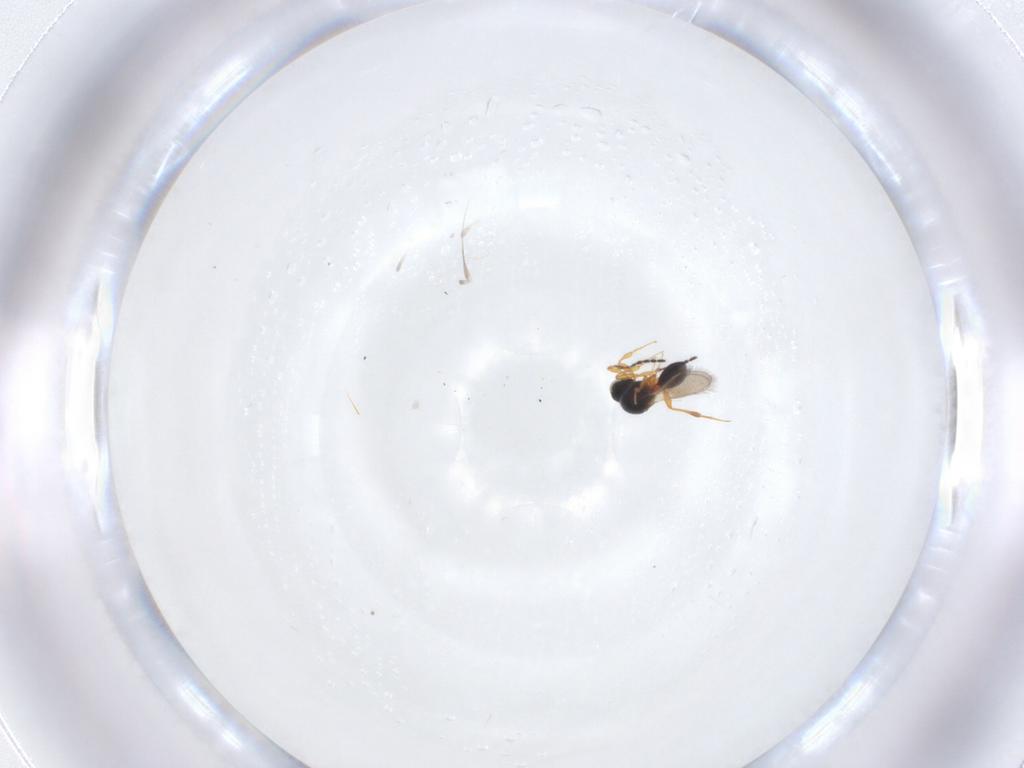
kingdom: Animalia
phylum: Arthropoda
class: Insecta
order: Hymenoptera
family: Platygastridae
